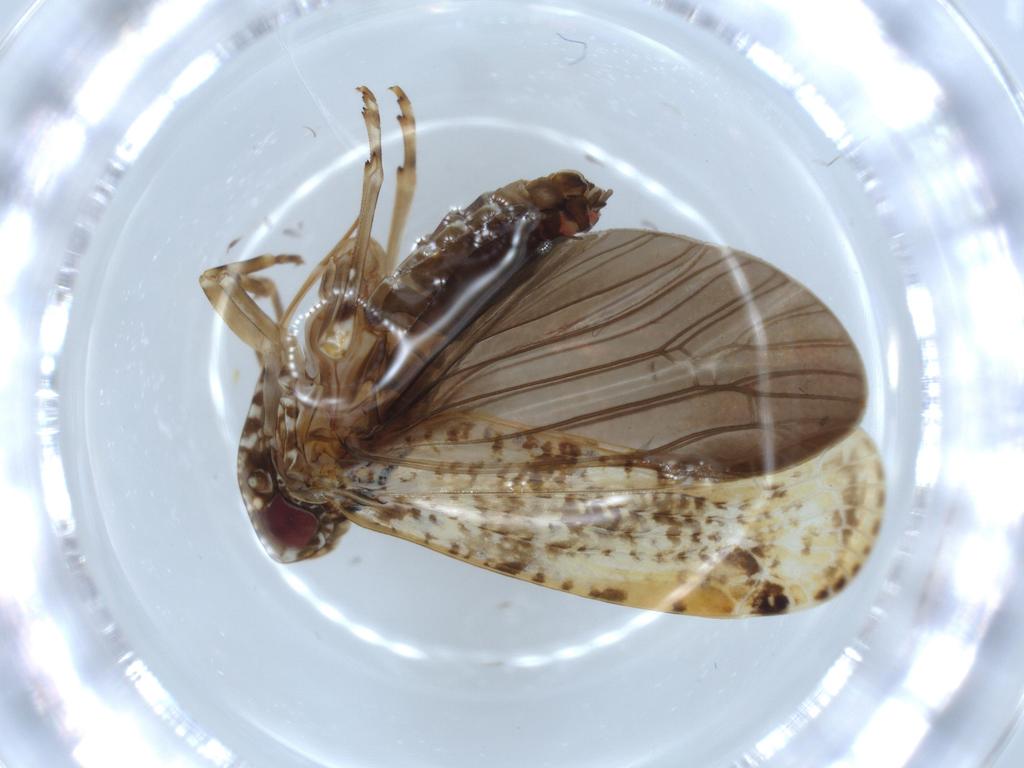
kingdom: Animalia
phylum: Arthropoda
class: Insecta
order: Hemiptera
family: Achilidae
